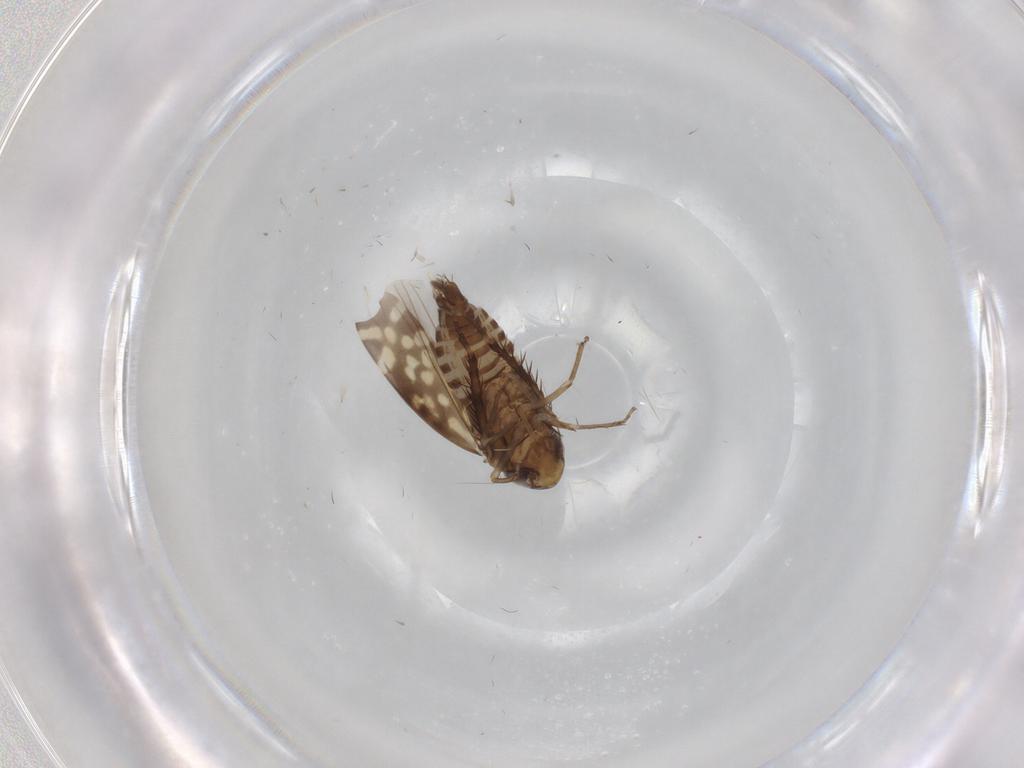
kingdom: Animalia
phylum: Arthropoda
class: Insecta
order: Hemiptera
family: Cicadellidae
